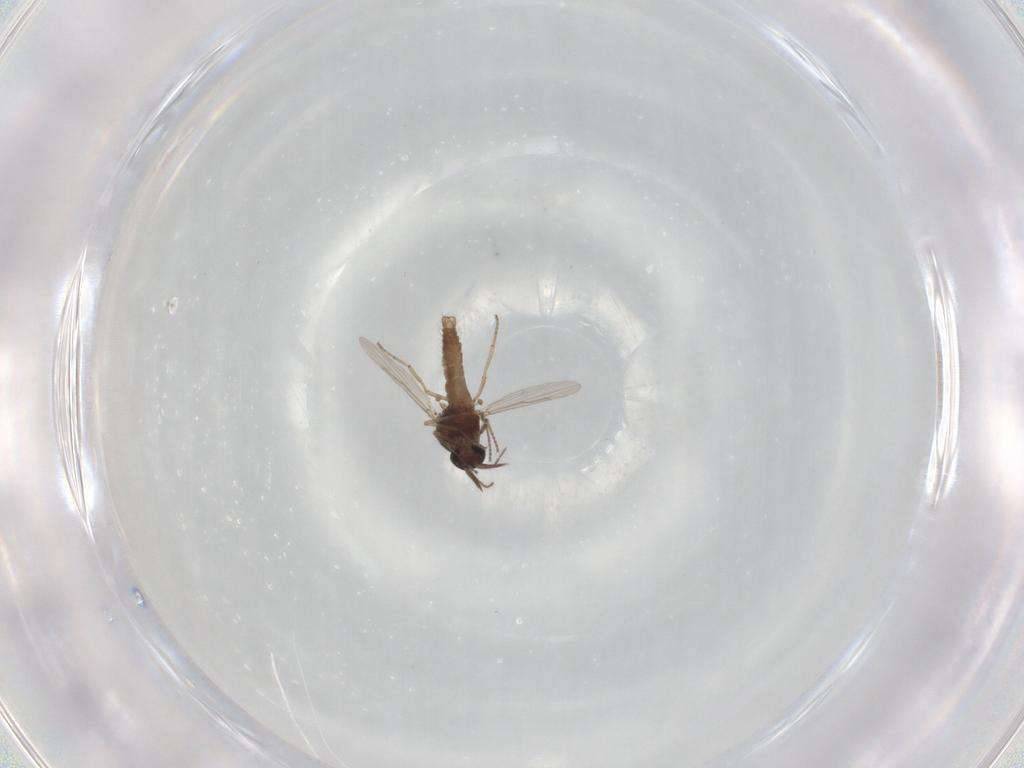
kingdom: Animalia
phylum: Arthropoda
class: Insecta
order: Diptera
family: Ceratopogonidae
